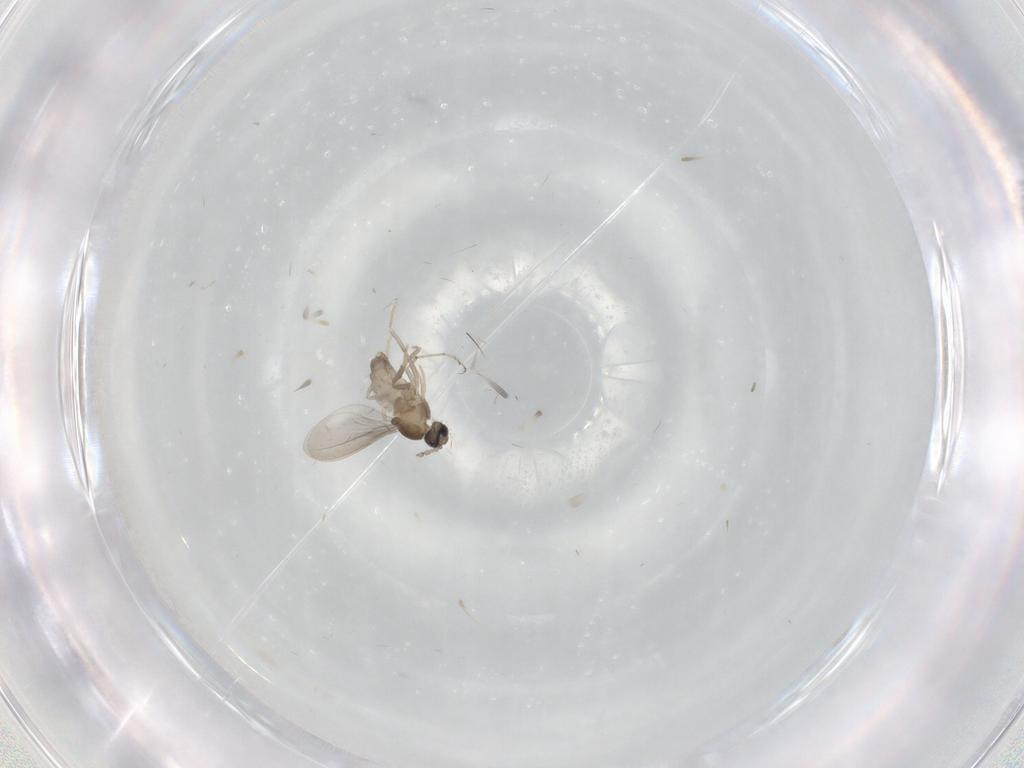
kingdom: Animalia
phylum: Arthropoda
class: Insecta
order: Diptera
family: Cecidomyiidae
